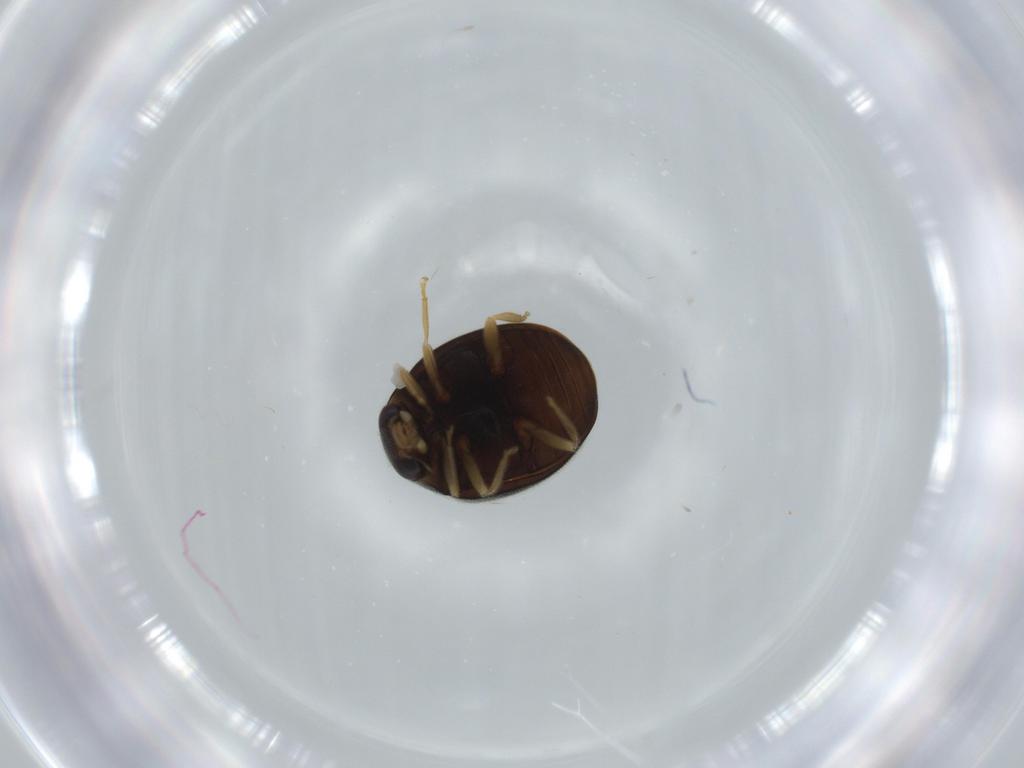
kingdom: Animalia
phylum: Arthropoda
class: Insecta
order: Coleoptera
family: Coccinellidae
